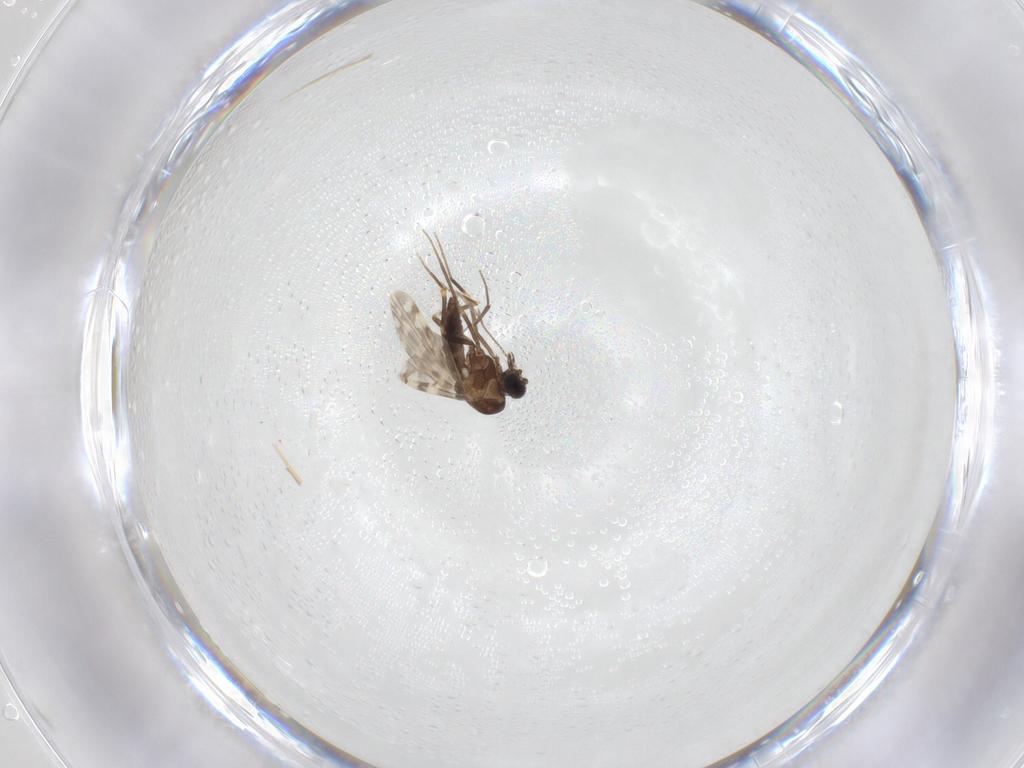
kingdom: Animalia
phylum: Arthropoda
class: Insecta
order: Diptera
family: Ceratopogonidae
